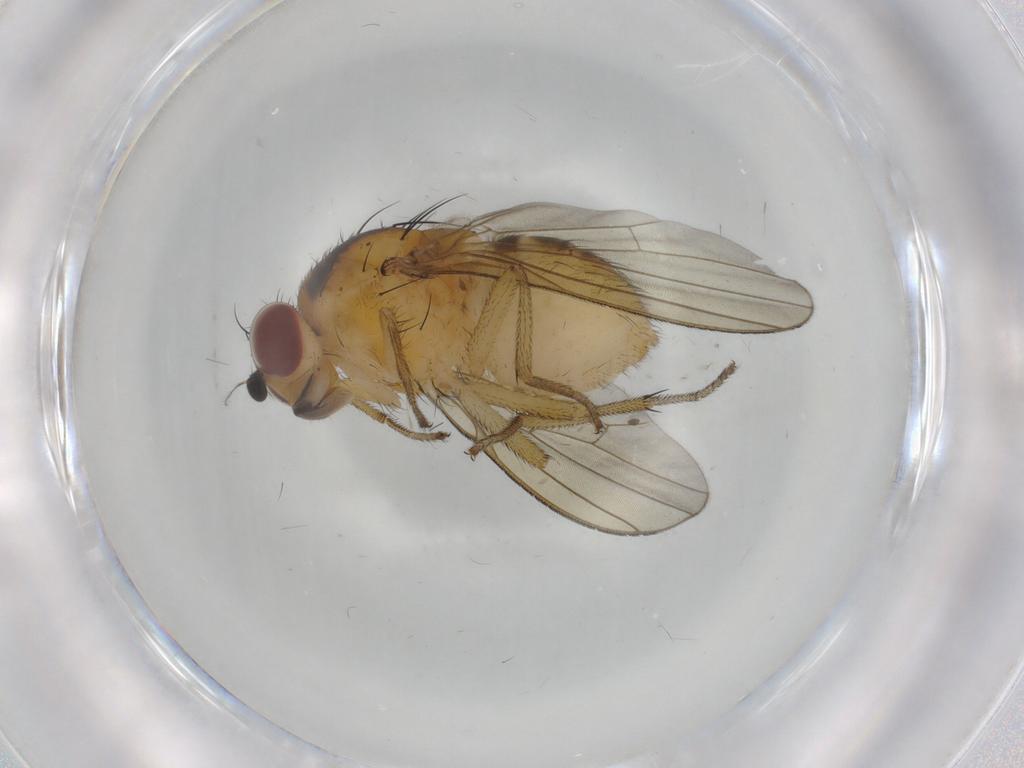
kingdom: Animalia
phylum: Arthropoda
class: Insecta
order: Diptera
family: Sciaridae
